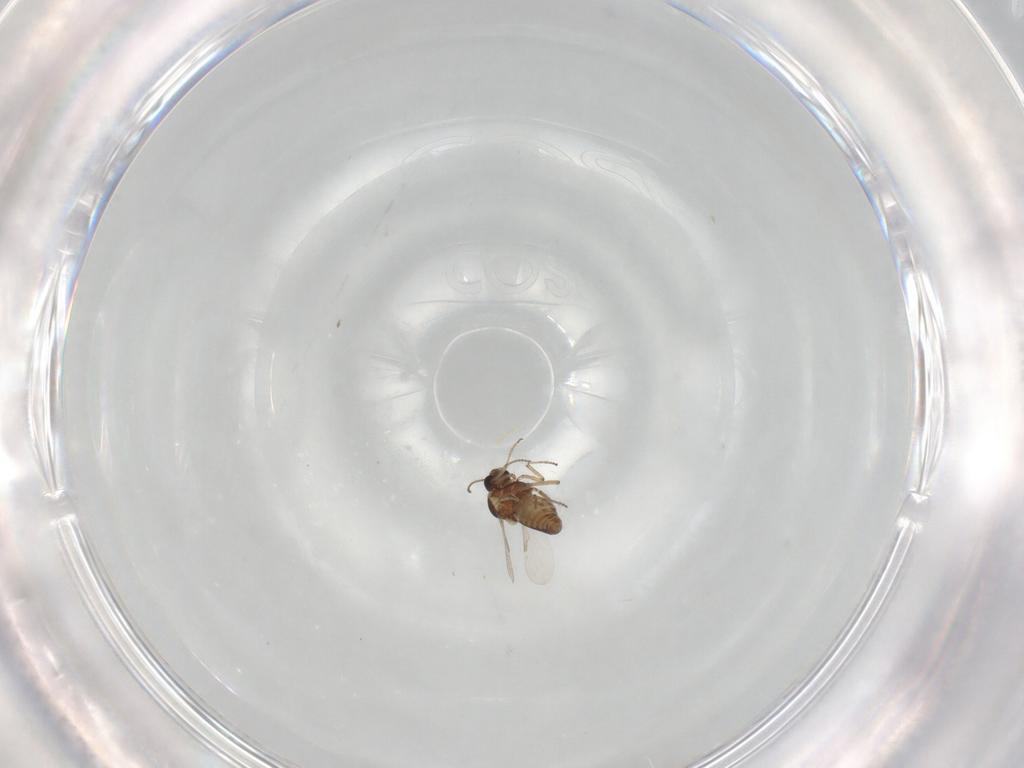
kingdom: Animalia
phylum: Arthropoda
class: Insecta
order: Diptera
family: Ceratopogonidae
